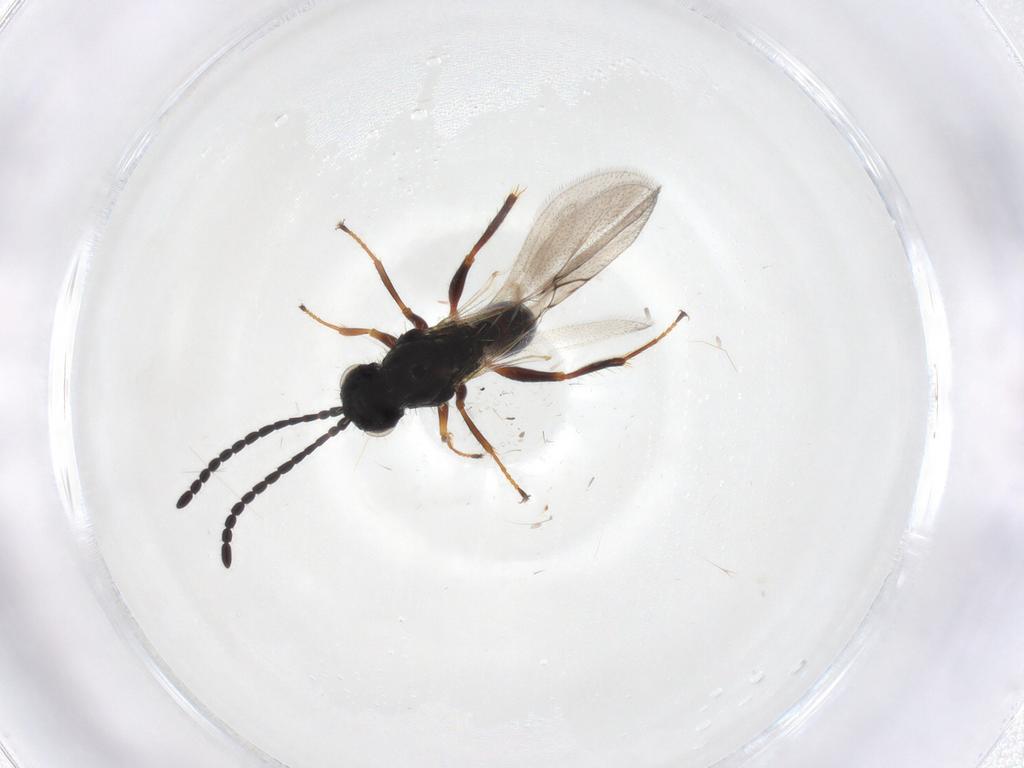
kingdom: Animalia
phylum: Arthropoda
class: Insecta
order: Hymenoptera
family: Figitidae
